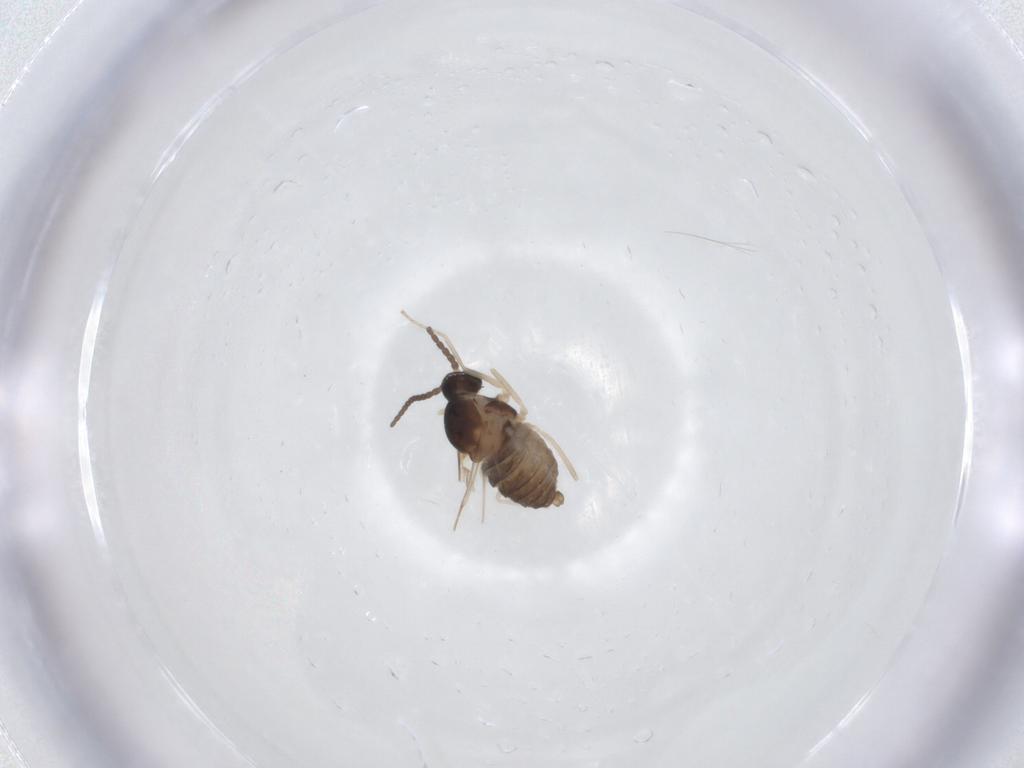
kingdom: Animalia
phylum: Arthropoda
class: Insecta
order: Diptera
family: Cecidomyiidae
